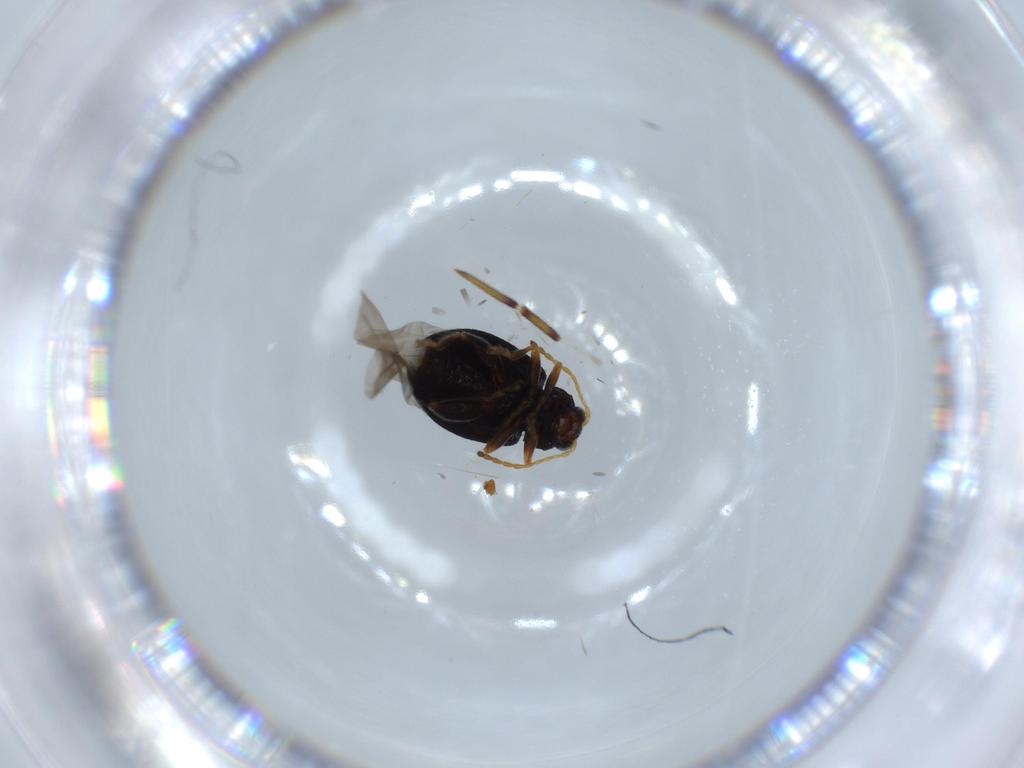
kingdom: Animalia
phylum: Arthropoda
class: Insecta
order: Coleoptera
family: Chrysomelidae
